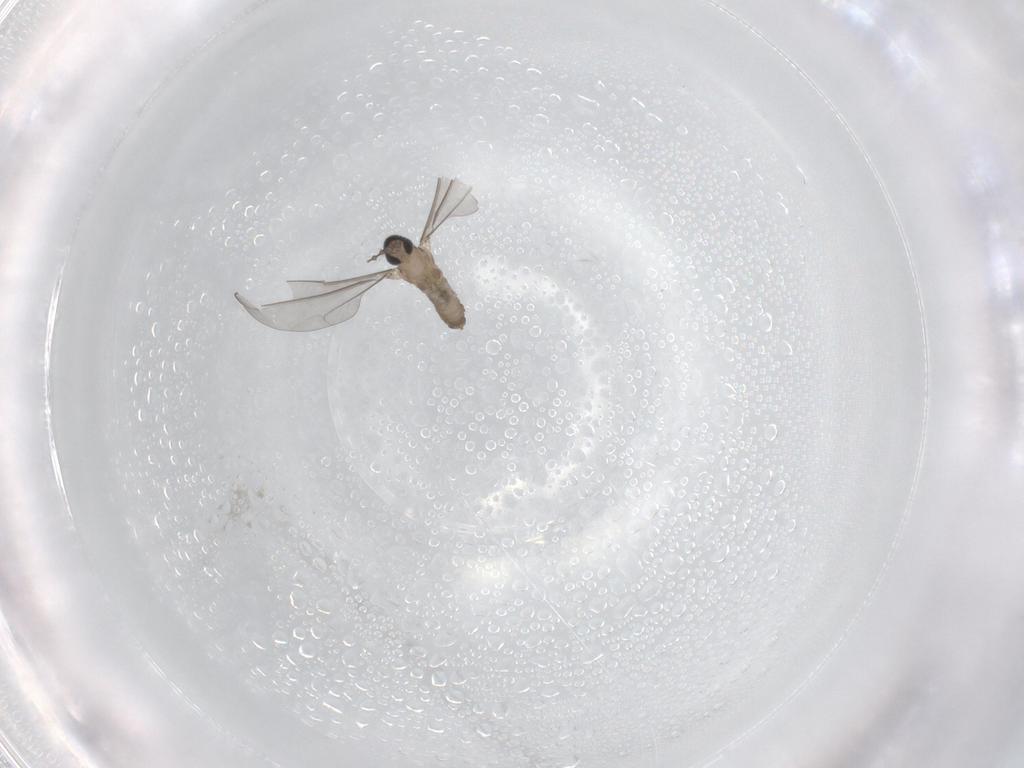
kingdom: Animalia
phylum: Arthropoda
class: Insecta
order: Diptera
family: Cecidomyiidae
